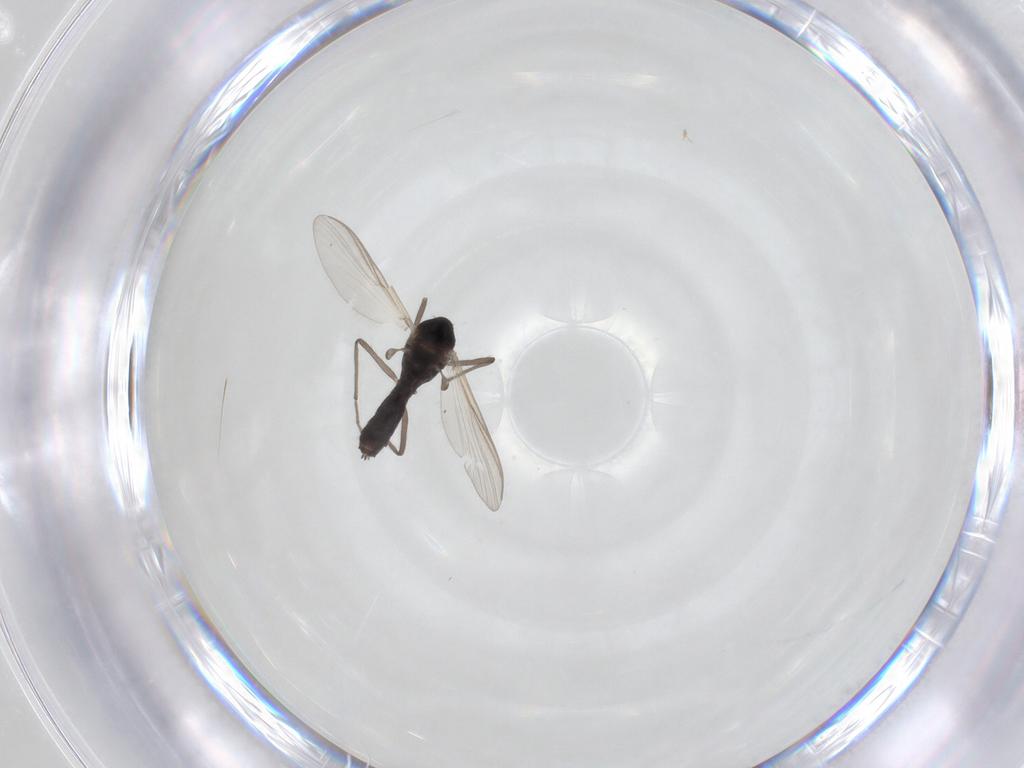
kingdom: Animalia
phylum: Arthropoda
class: Insecta
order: Diptera
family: Chironomidae
